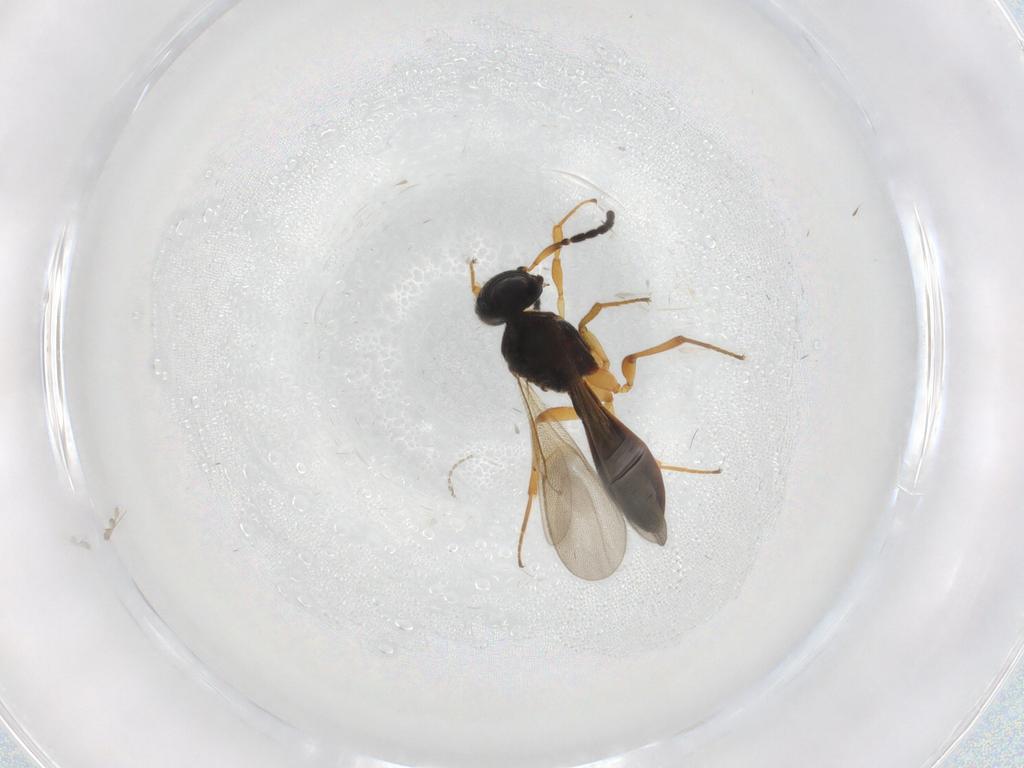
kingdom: Animalia
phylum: Arthropoda
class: Insecta
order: Hymenoptera
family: Scelionidae
